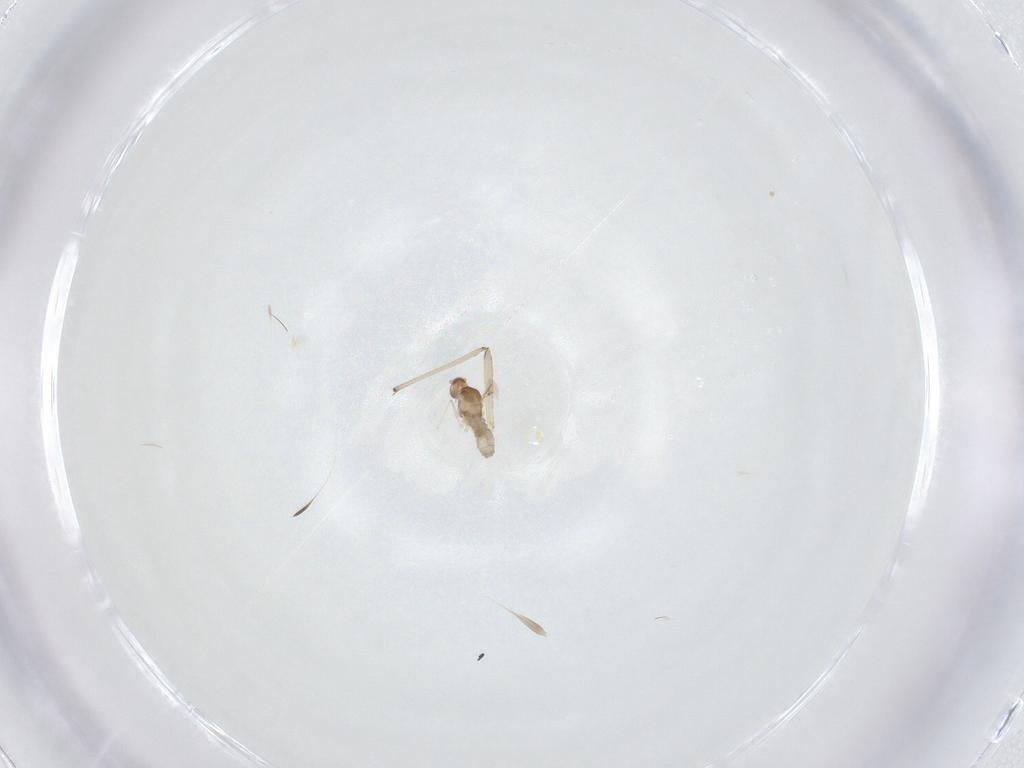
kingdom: Animalia
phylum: Arthropoda
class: Insecta
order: Diptera
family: Chironomidae
